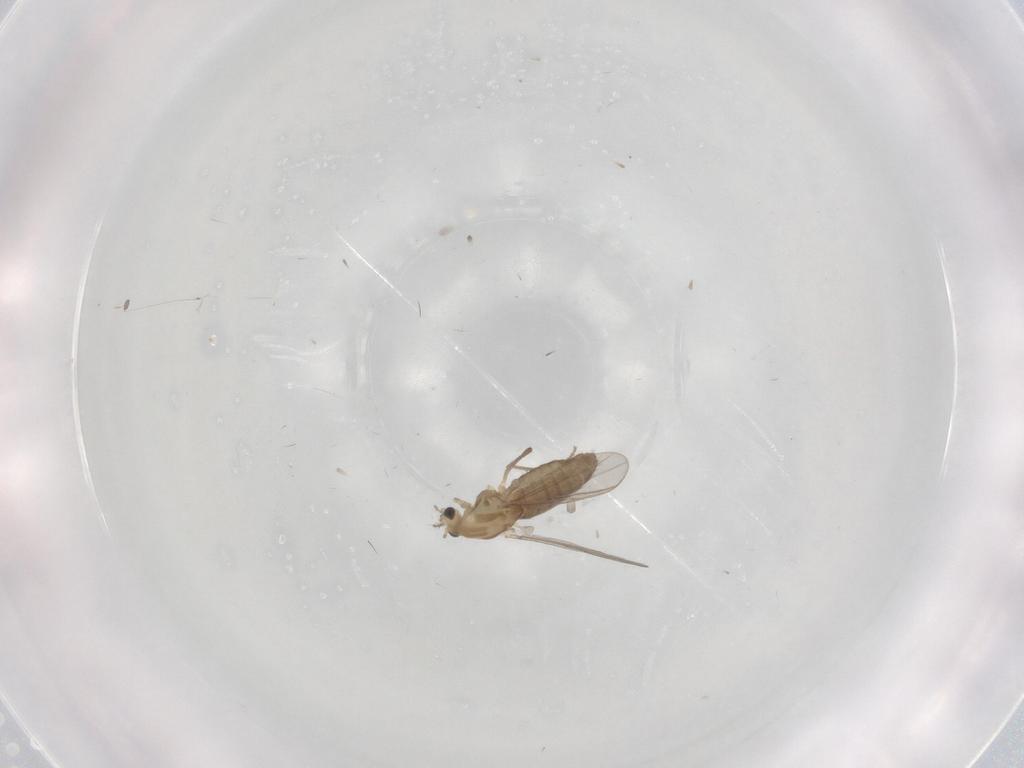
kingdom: Animalia
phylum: Arthropoda
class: Insecta
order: Diptera
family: Chironomidae
